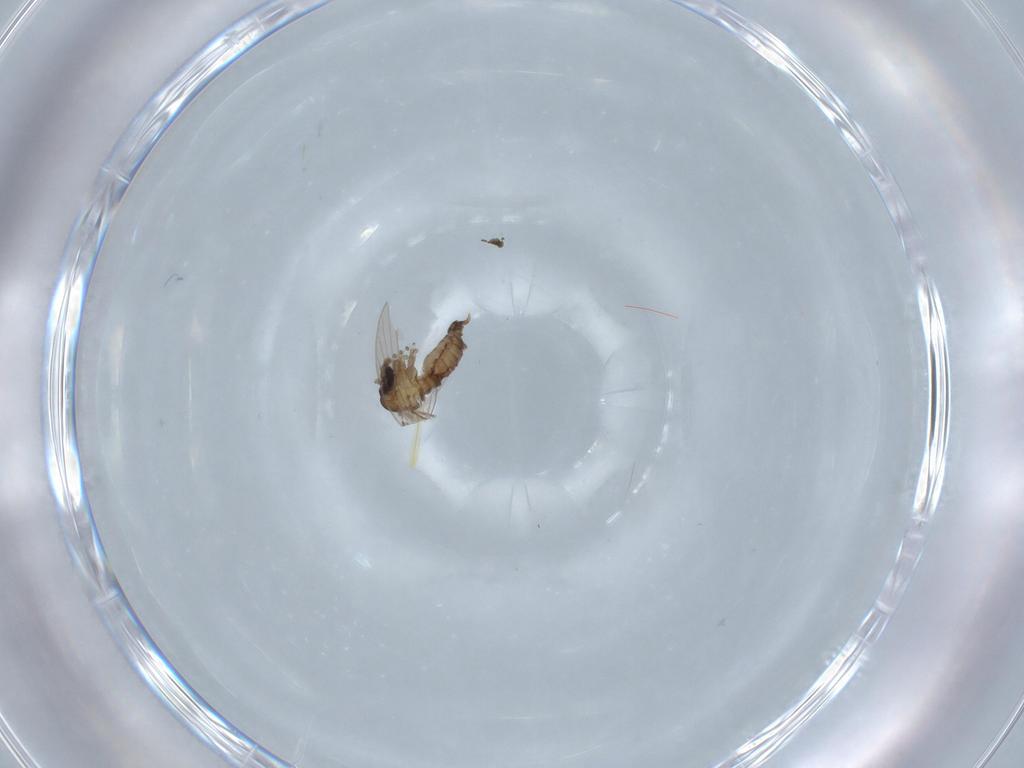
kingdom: Animalia
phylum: Arthropoda
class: Insecta
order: Diptera
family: Psychodidae
